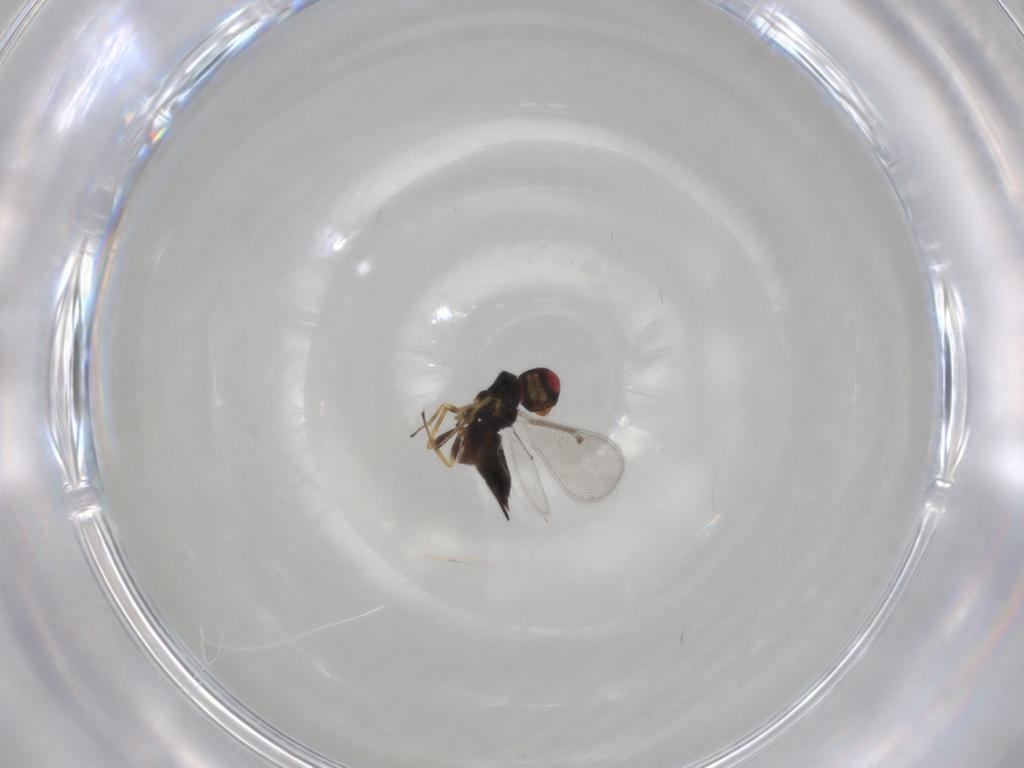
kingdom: Animalia
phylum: Arthropoda
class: Insecta
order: Hymenoptera
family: Eulophidae
